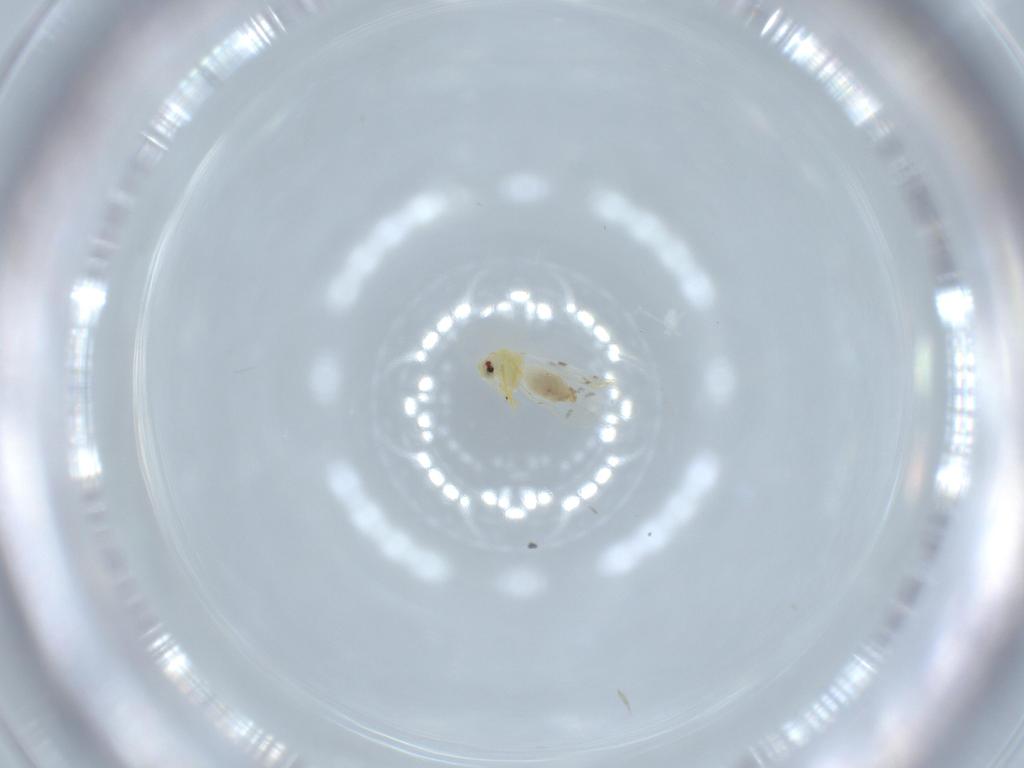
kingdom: Animalia
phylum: Arthropoda
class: Insecta
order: Hemiptera
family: Aleyrodidae
